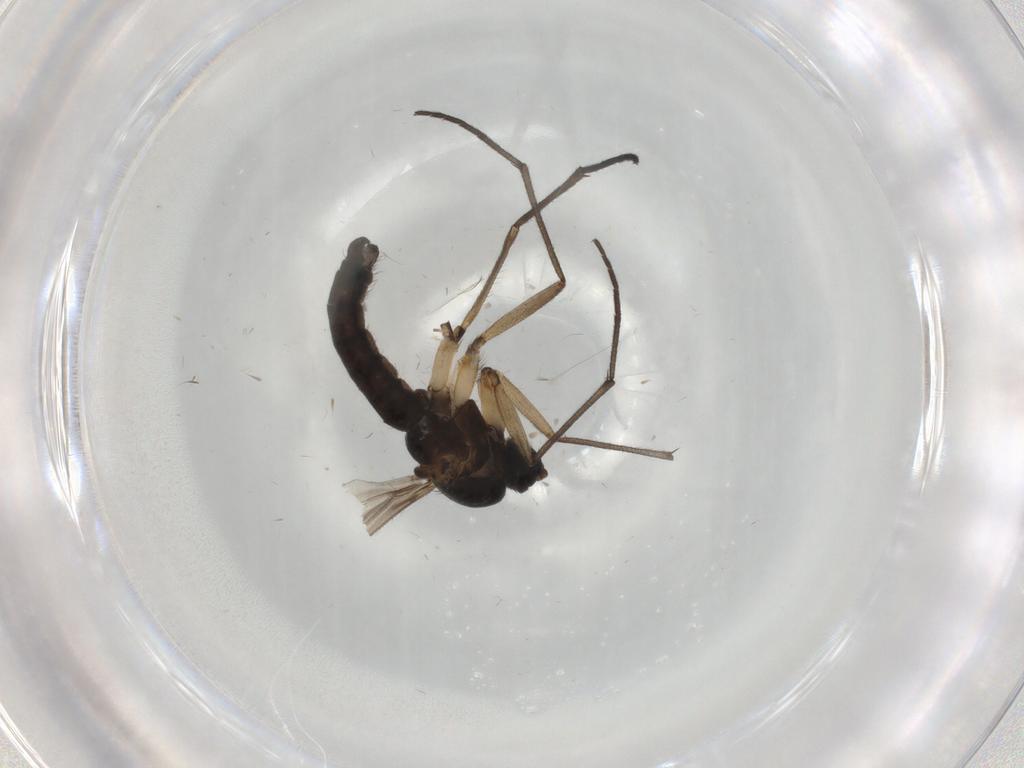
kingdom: Animalia
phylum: Arthropoda
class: Insecta
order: Diptera
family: Sciaridae
